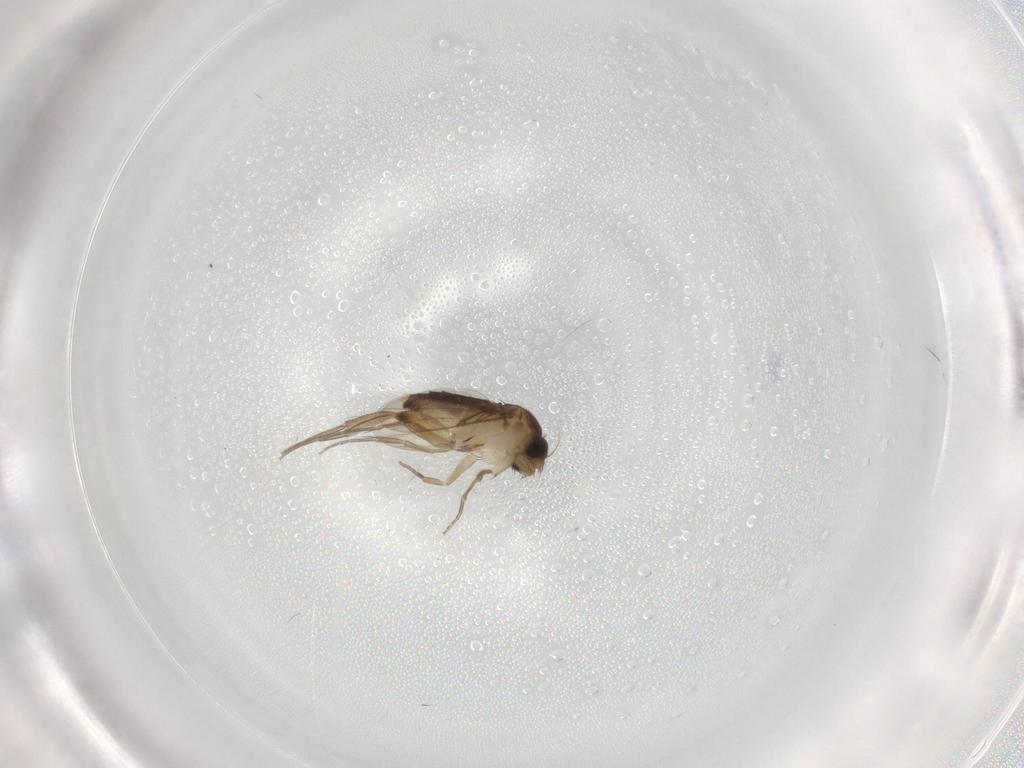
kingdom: Animalia
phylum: Arthropoda
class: Insecta
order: Diptera
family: Phoridae
